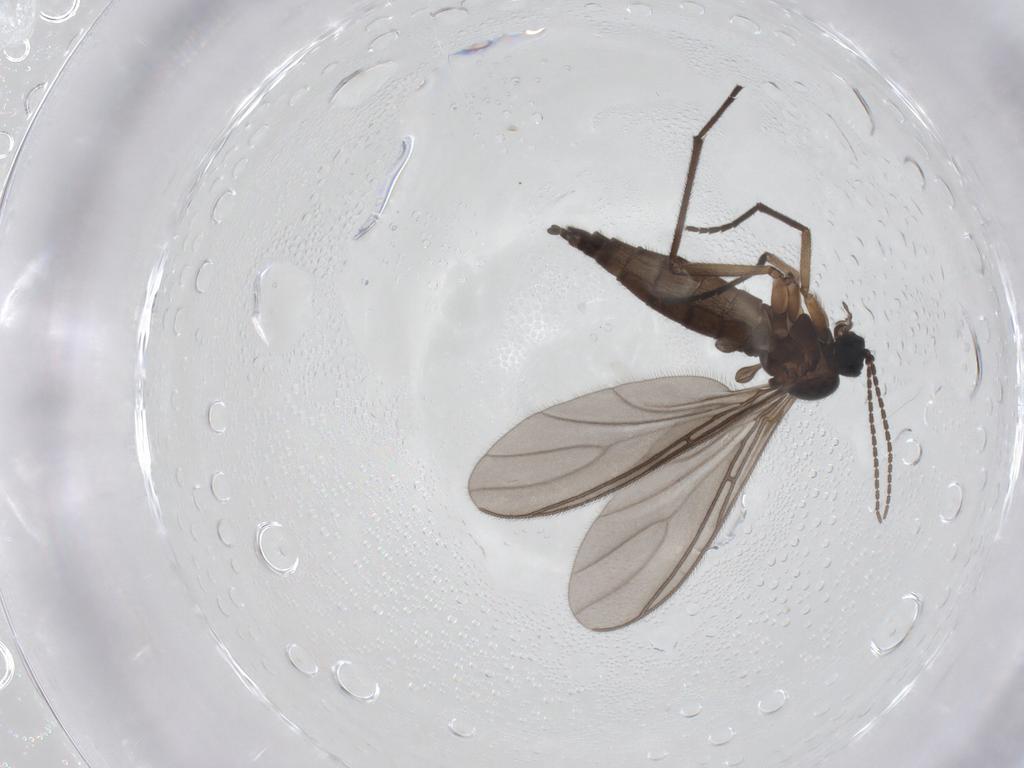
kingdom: Animalia
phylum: Arthropoda
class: Insecta
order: Diptera
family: Sciaridae
